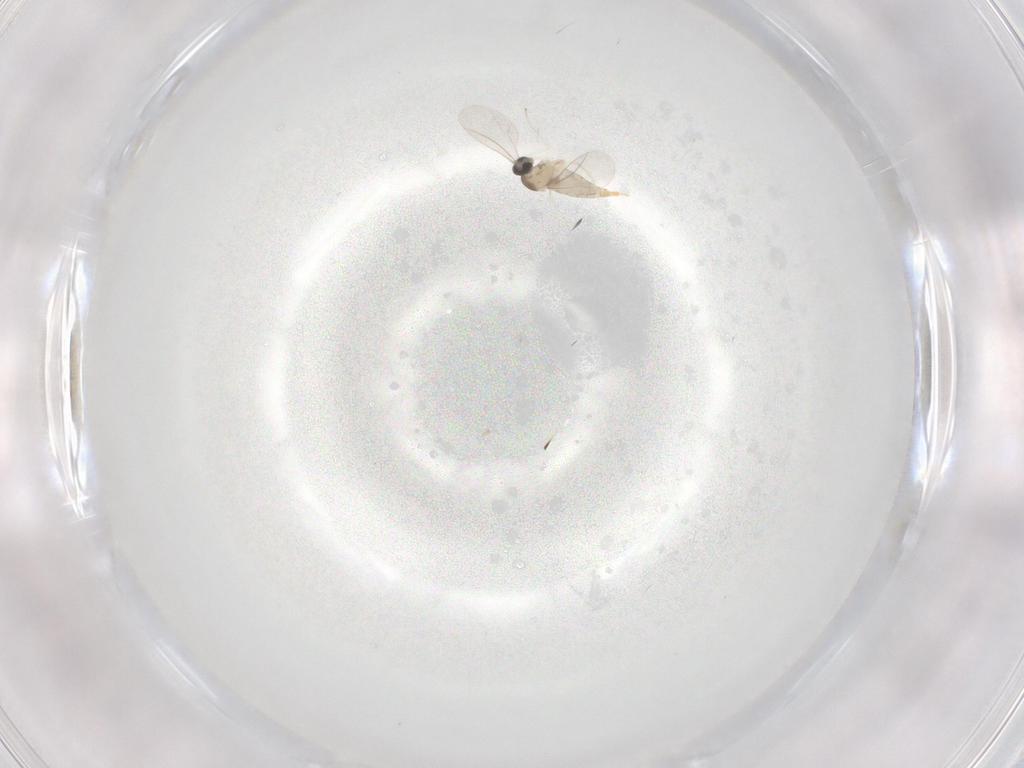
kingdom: Animalia
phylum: Arthropoda
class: Insecta
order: Diptera
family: Cecidomyiidae
